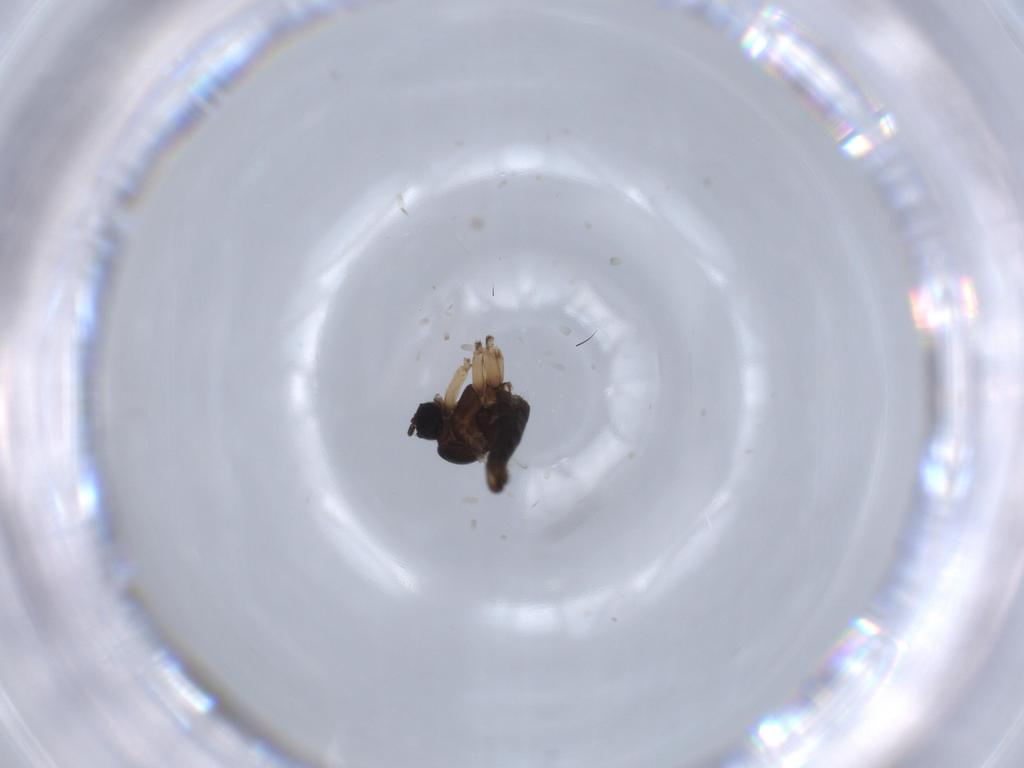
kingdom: Animalia
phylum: Arthropoda
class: Insecta
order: Diptera
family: Sciaridae
